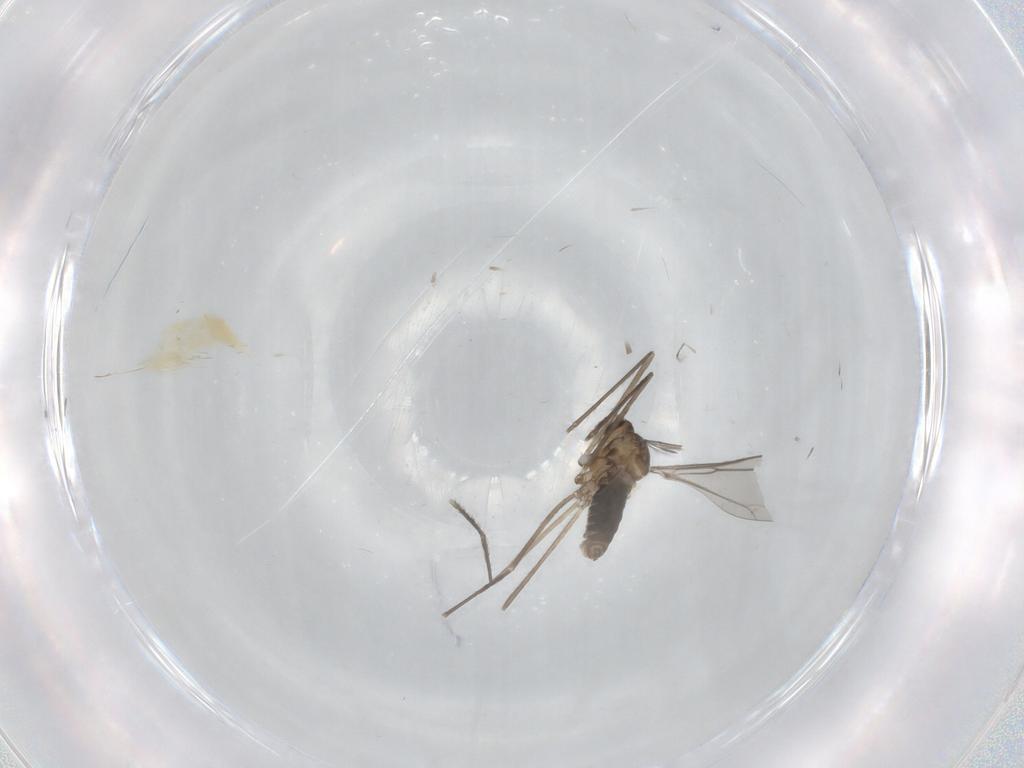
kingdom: Animalia
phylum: Arthropoda
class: Insecta
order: Diptera
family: Cecidomyiidae
